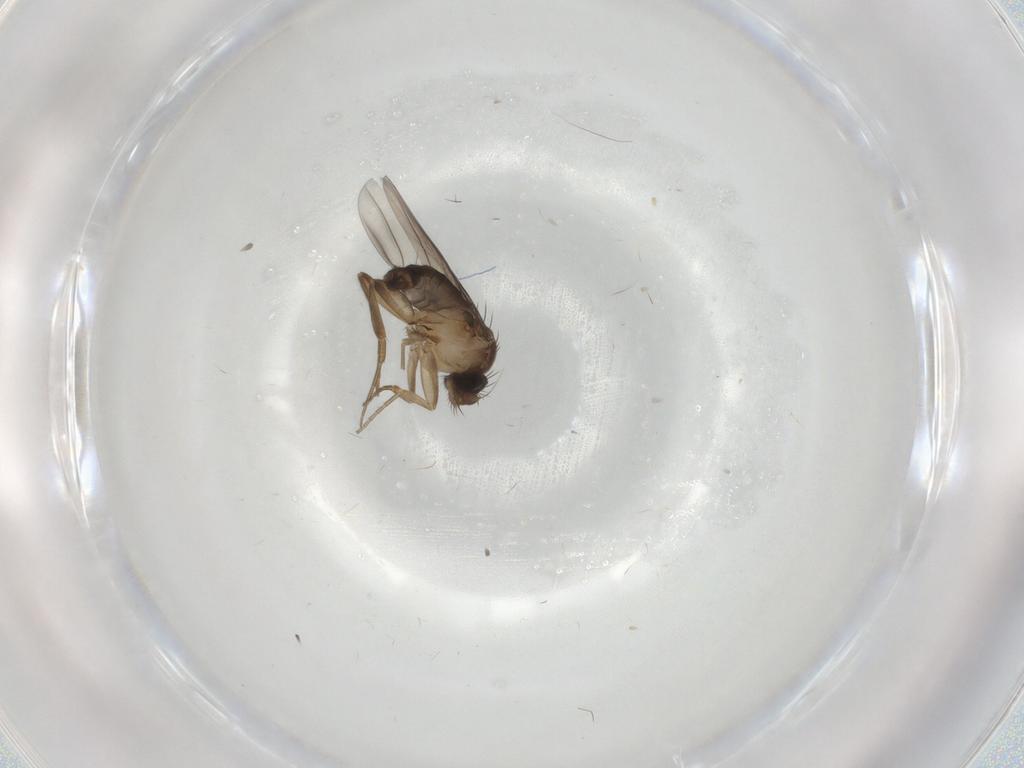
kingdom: Animalia
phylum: Arthropoda
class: Insecta
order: Diptera
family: Phoridae
